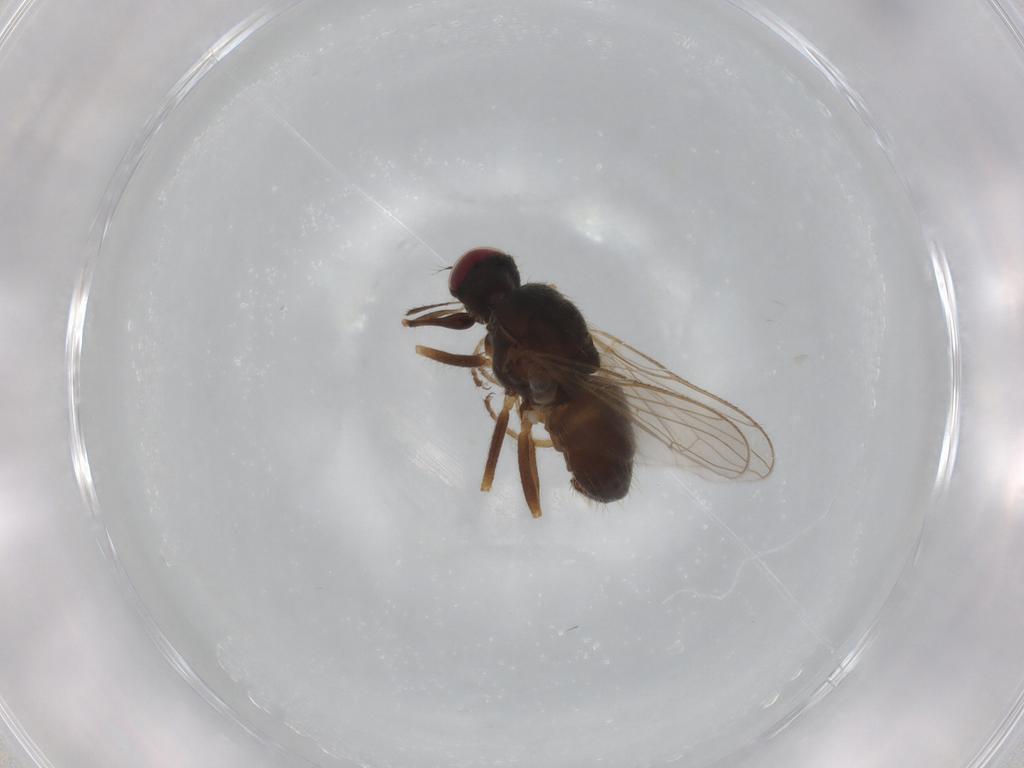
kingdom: Animalia
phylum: Arthropoda
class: Insecta
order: Diptera
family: Muscidae
